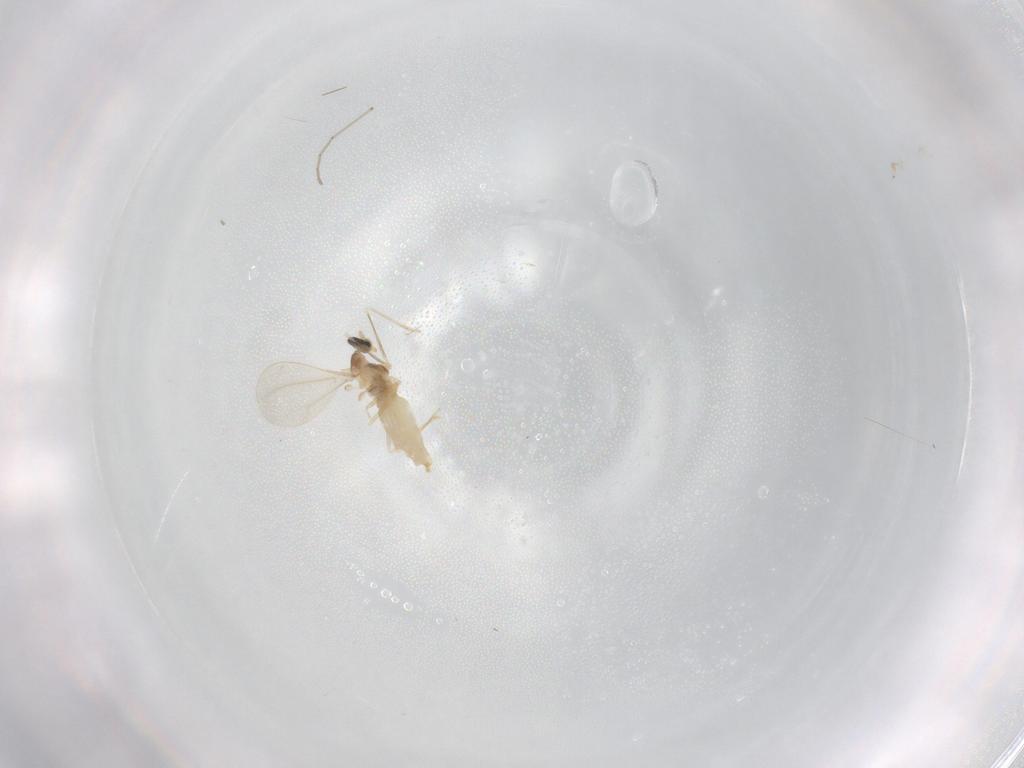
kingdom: Animalia
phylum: Arthropoda
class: Insecta
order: Diptera
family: Cecidomyiidae
